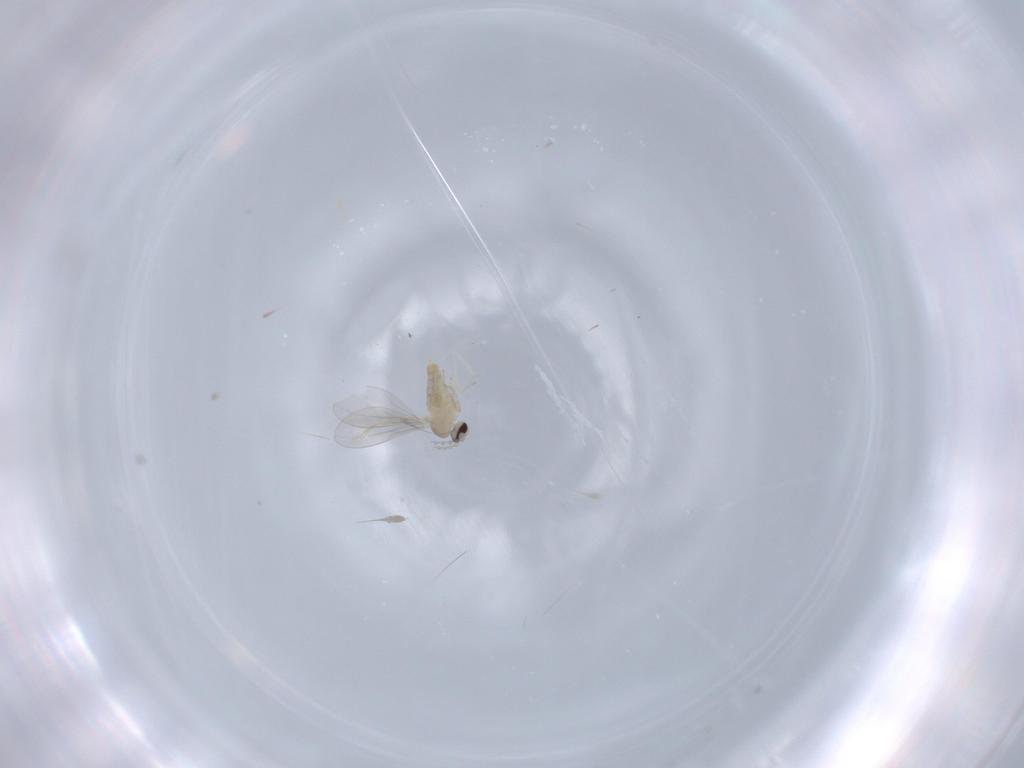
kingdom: Animalia
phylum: Arthropoda
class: Insecta
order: Diptera
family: Cecidomyiidae
